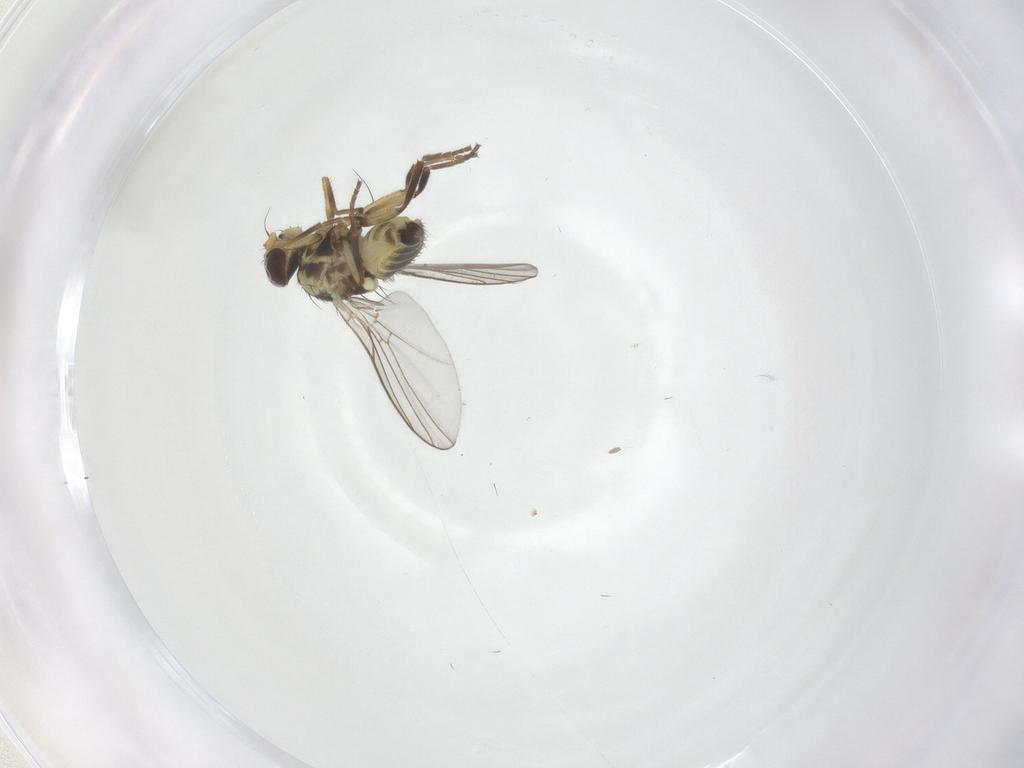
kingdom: Animalia
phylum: Arthropoda
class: Insecta
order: Diptera
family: Agromyzidae
